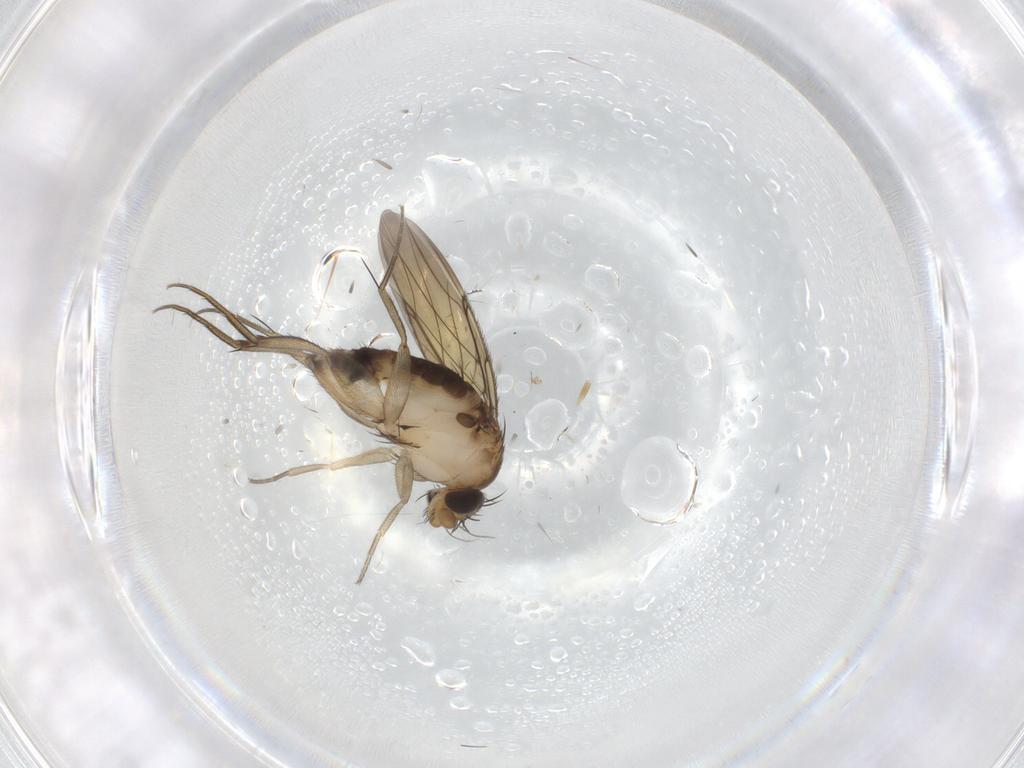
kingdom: Animalia
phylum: Arthropoda
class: Insecta
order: Diptera
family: Phoridae
